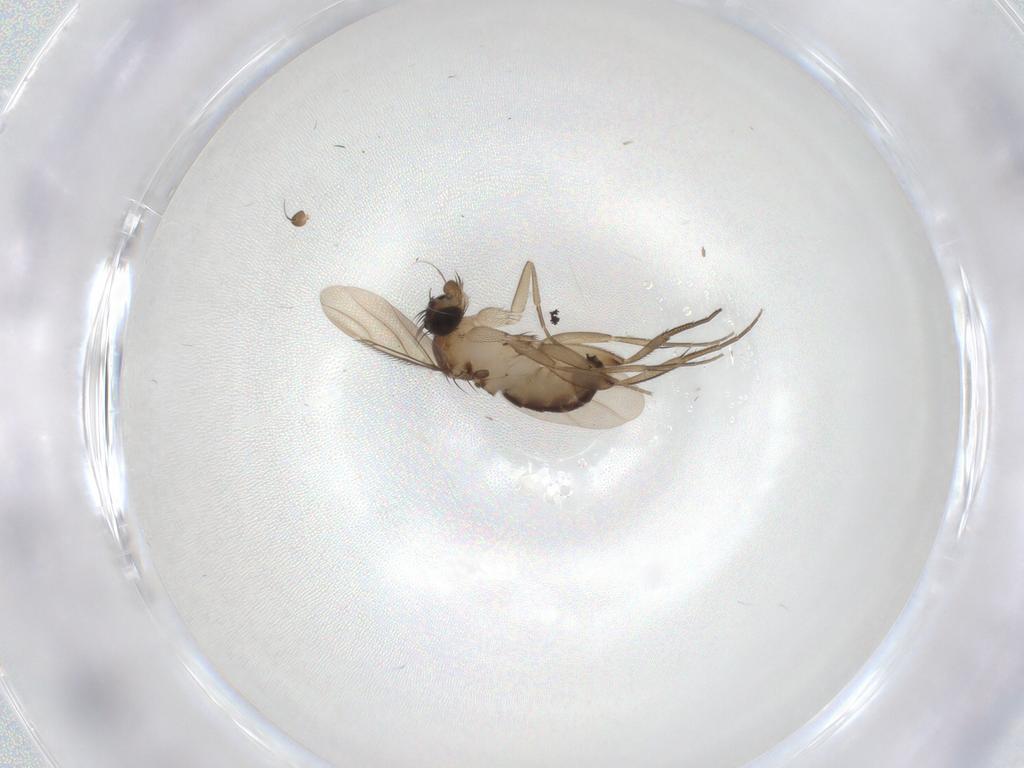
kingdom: Animalia
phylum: Arthropoda
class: Insecta
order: Diptera
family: Phoridae
